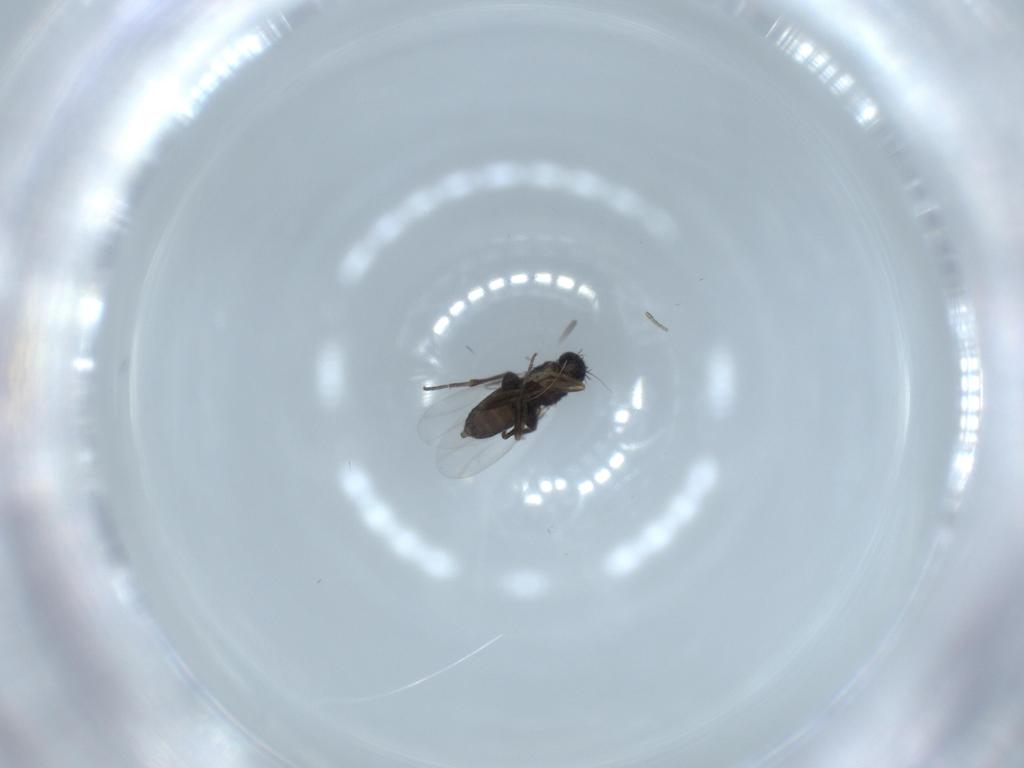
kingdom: Animalia
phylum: Arthropoda
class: Insecta
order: Diptera
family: Phoridae
